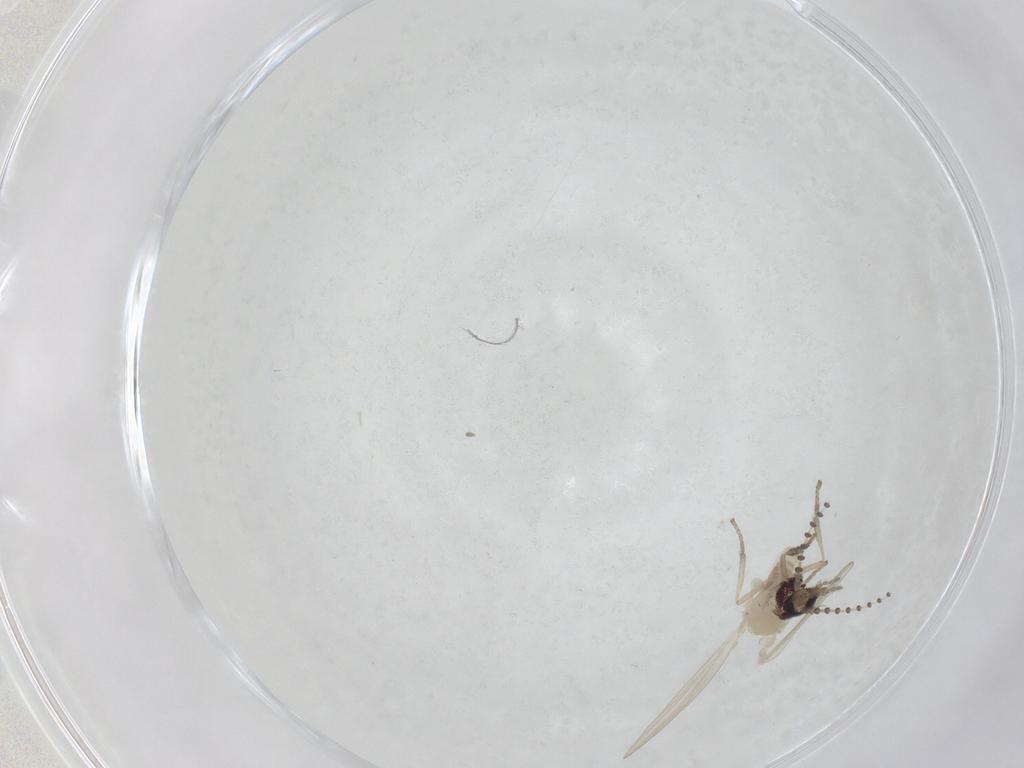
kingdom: Animalia
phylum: Arthropoda
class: Insecta
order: Diptera
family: Psychodidae
